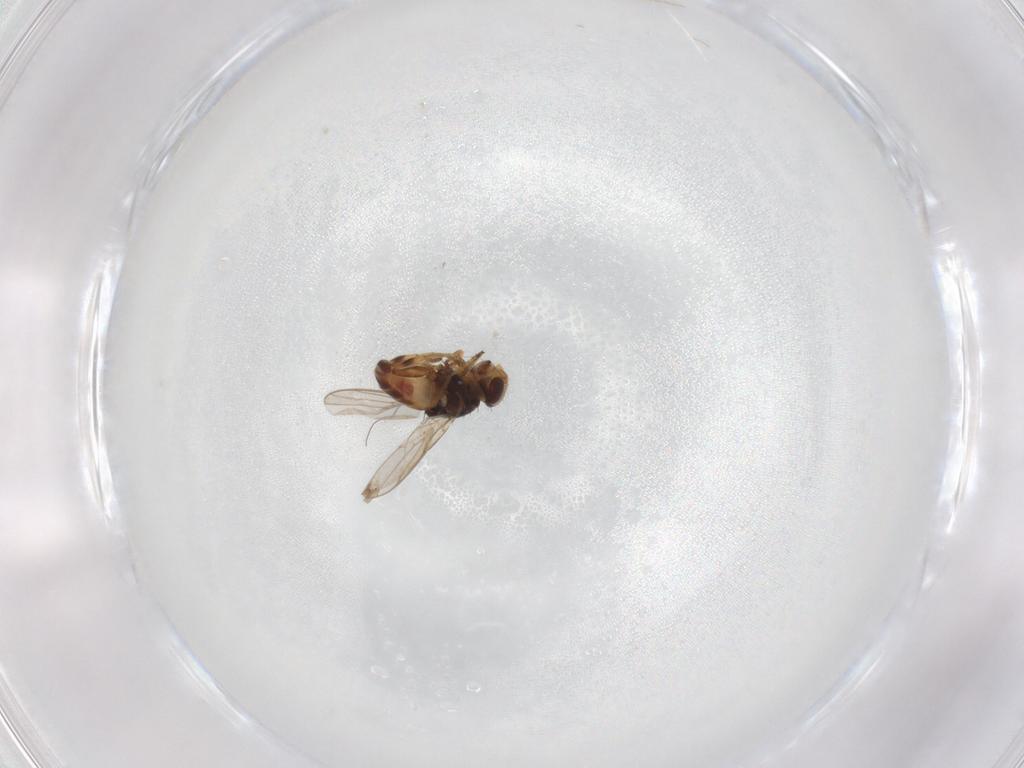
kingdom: Animalia
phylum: Arthropoda
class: Insecta
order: Diptera
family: Chloropidae
